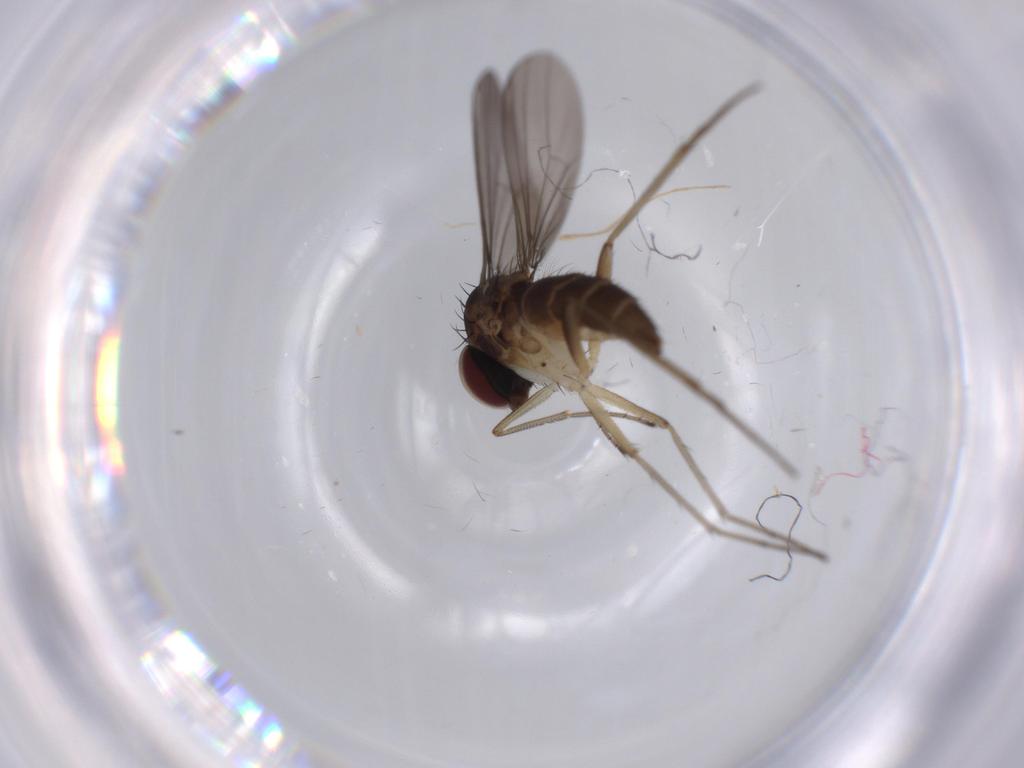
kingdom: Animalia
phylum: Arthropoda
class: Insecta
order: Diptera
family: Dolichopodidae
